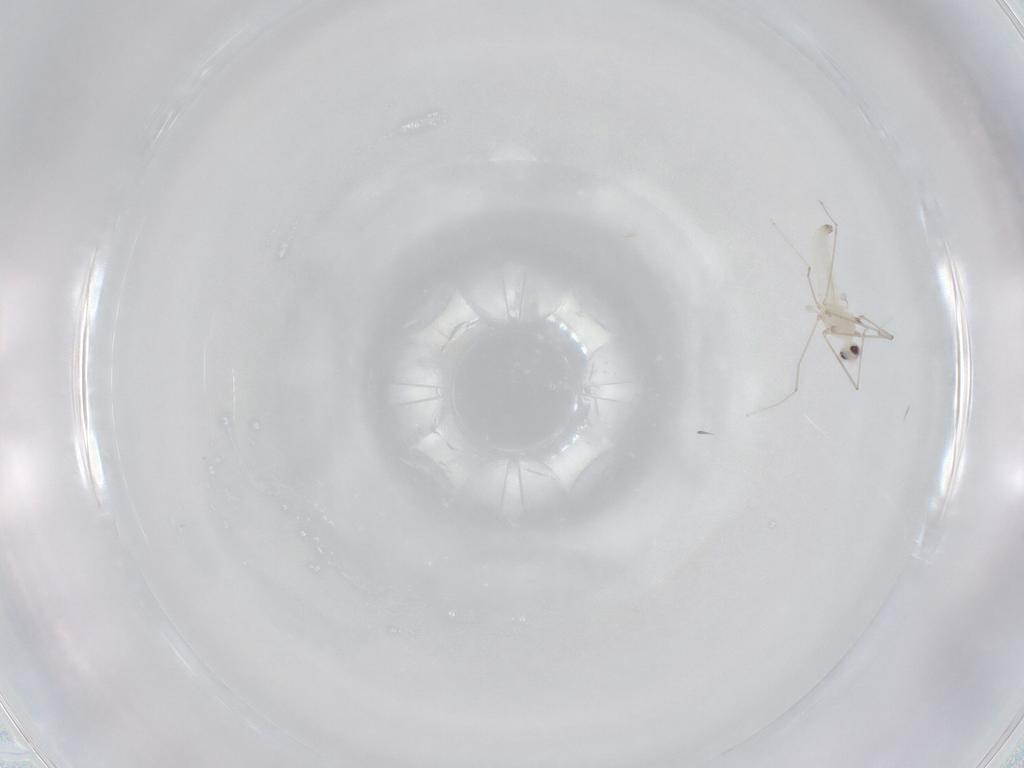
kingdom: Animalia
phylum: Arthropoda
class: Insecta
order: Diptera
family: Cecidomyiidae
